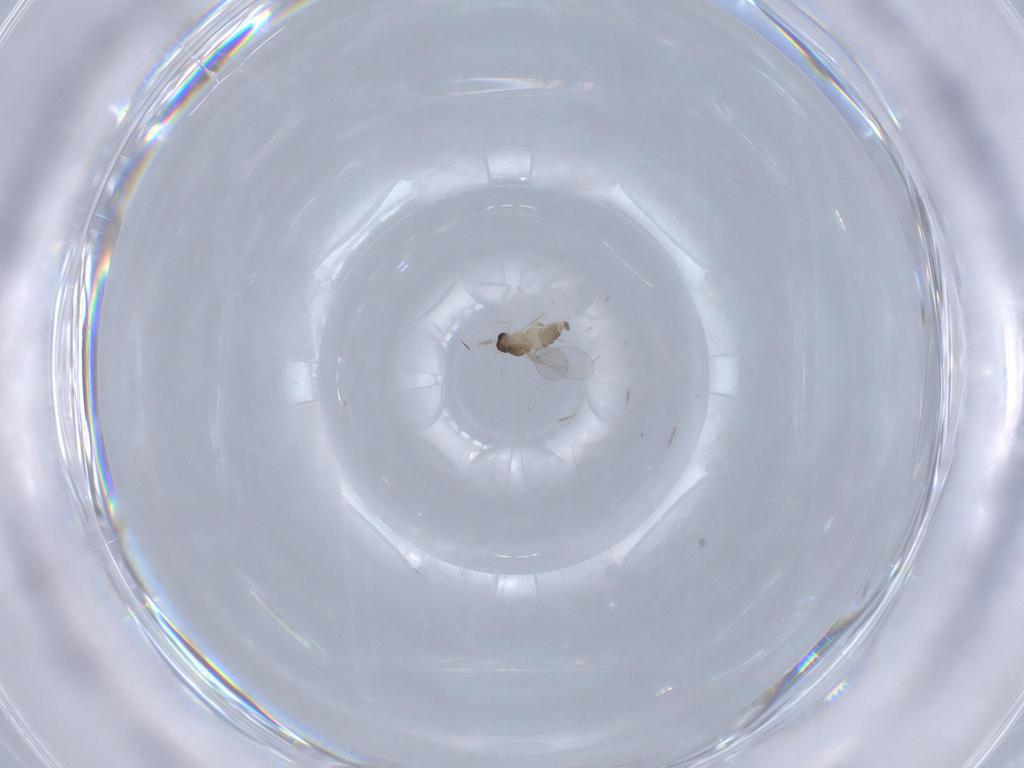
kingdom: Animalia
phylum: Arthropoda
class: Insecta
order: Diptera
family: Cecidomyiidae
